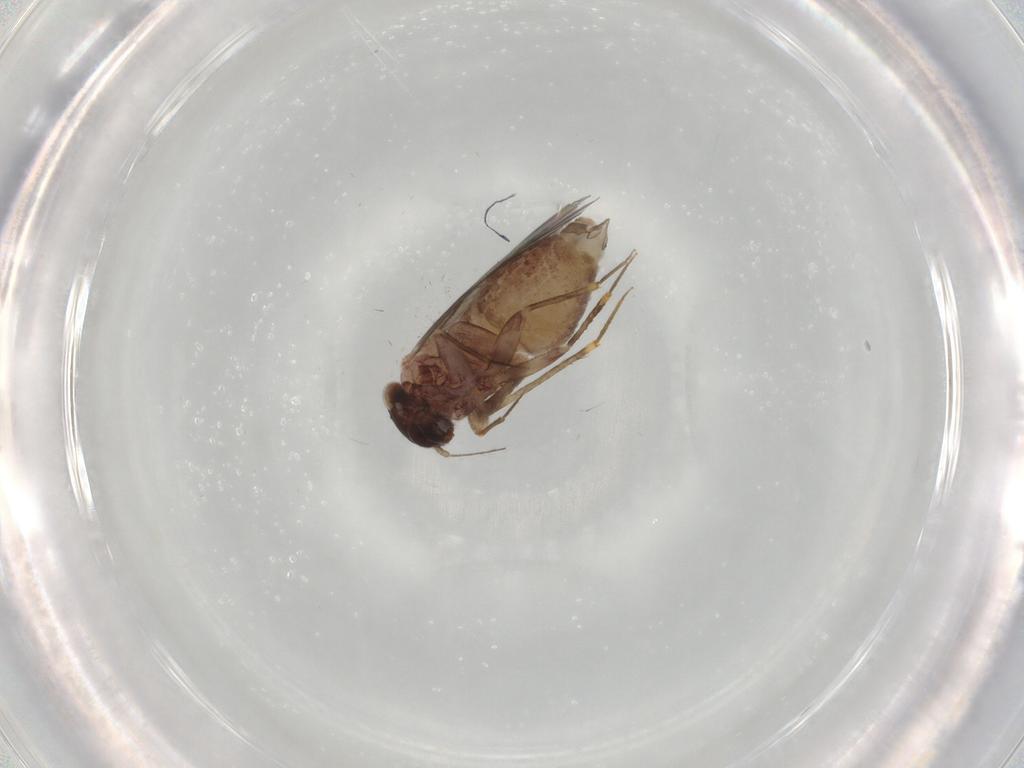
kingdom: Animalia
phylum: Arthropoda
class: Insecta
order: Psocodea
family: Lepidopsocidae
